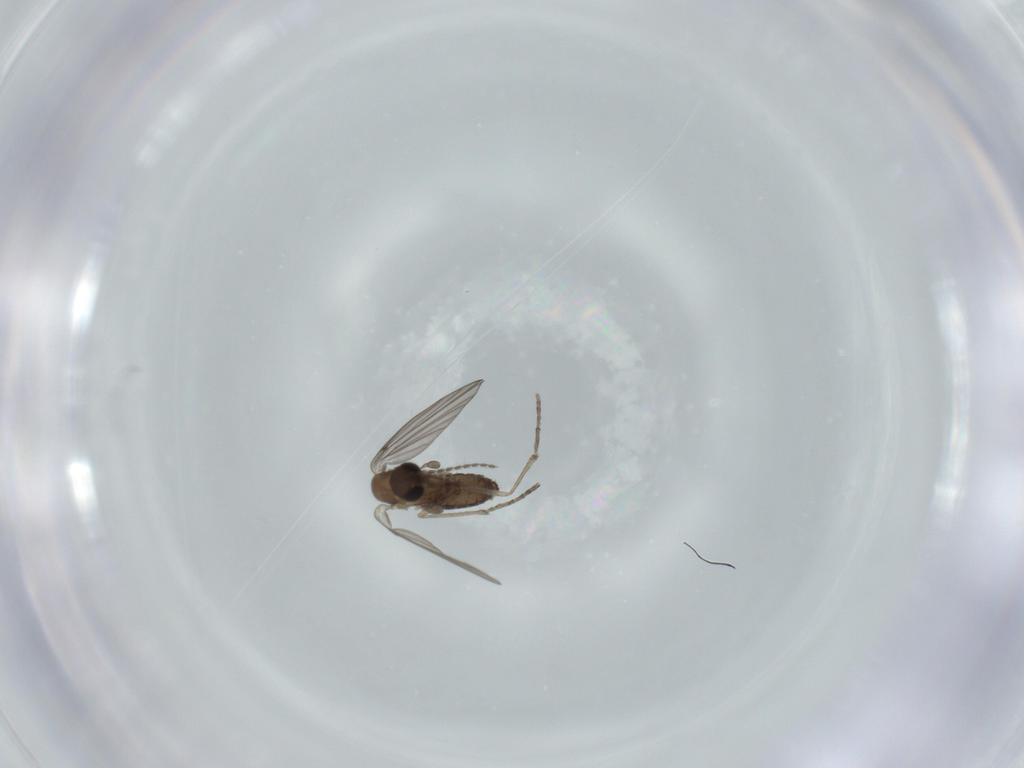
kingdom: Animalia
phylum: Arthropoda
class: Insecta
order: Diptera
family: Psychodidae
